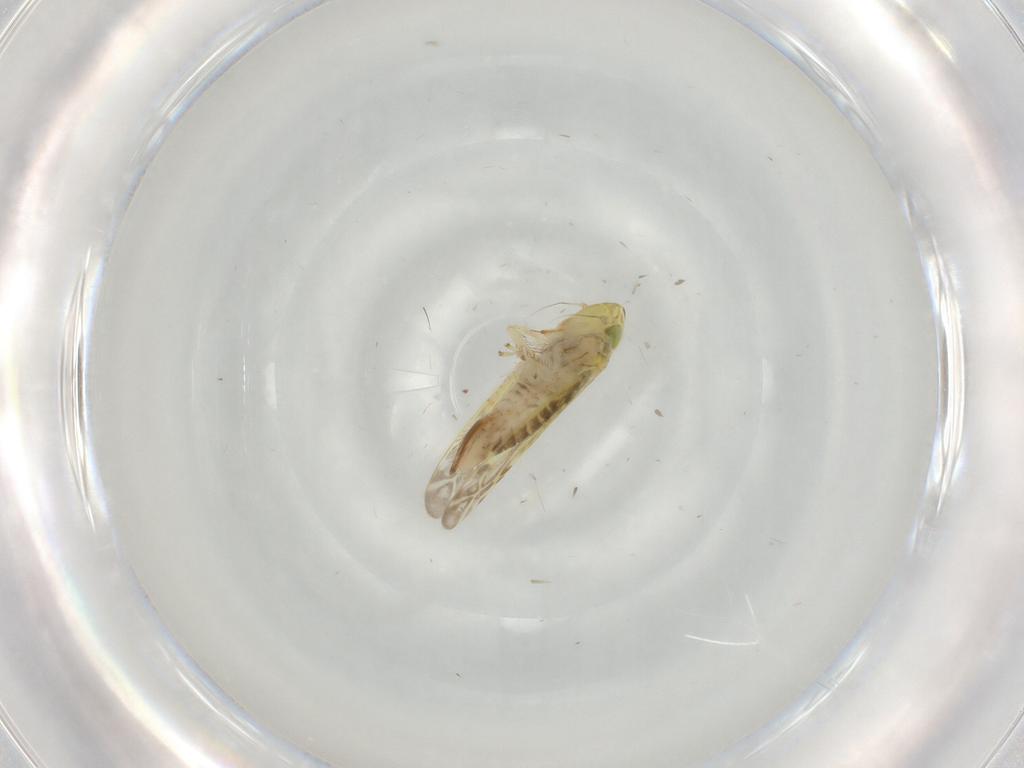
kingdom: Animalia
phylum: Arthropoda
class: Insecta
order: Hemiptera
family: Cicadellidae
